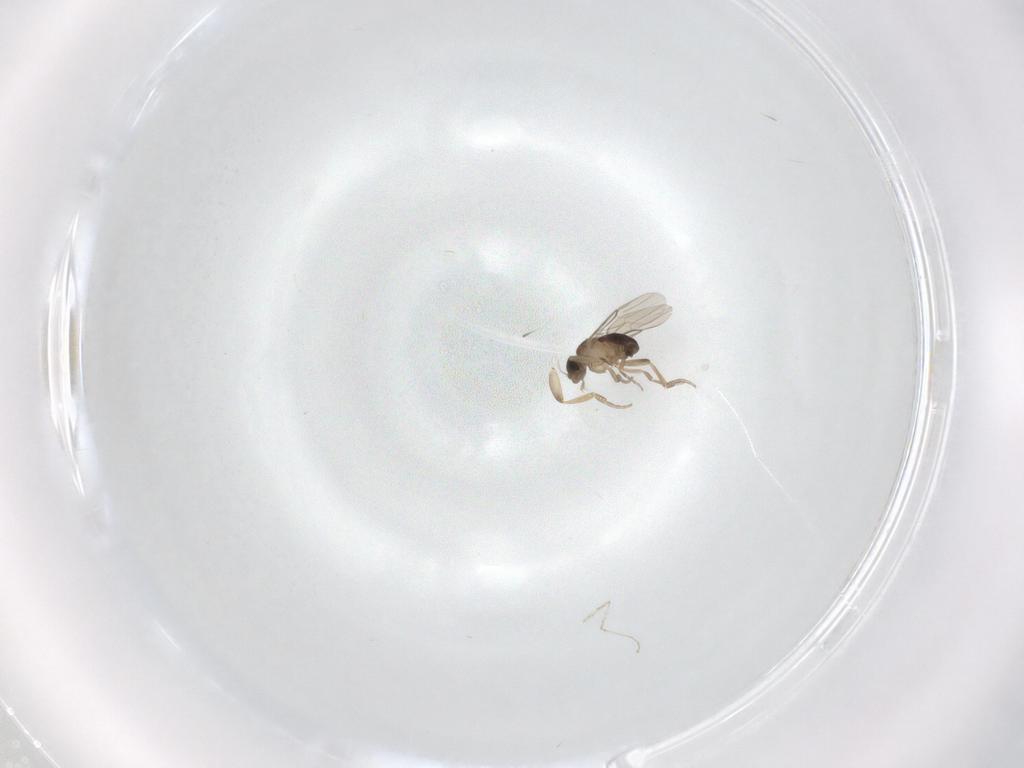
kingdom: Animalia
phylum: Arthropoda
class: Insecta
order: Diptera
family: Phoridae
